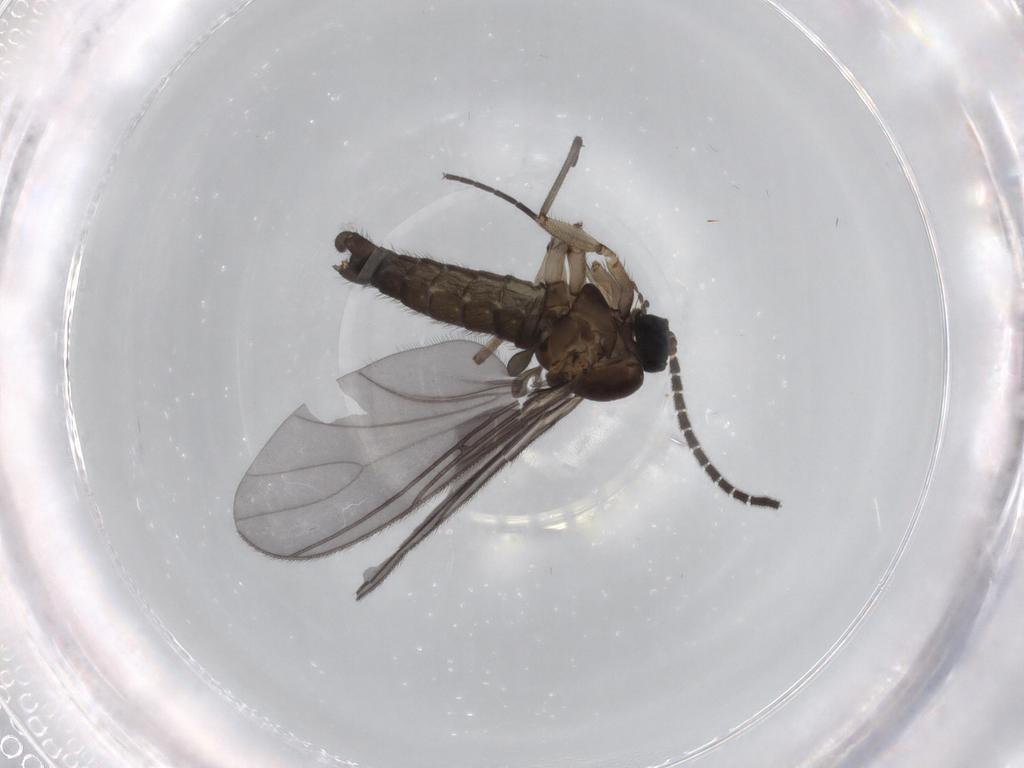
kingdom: Animalia
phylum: Arthropoda
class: Insecta
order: Diptera
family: Sciaridae
